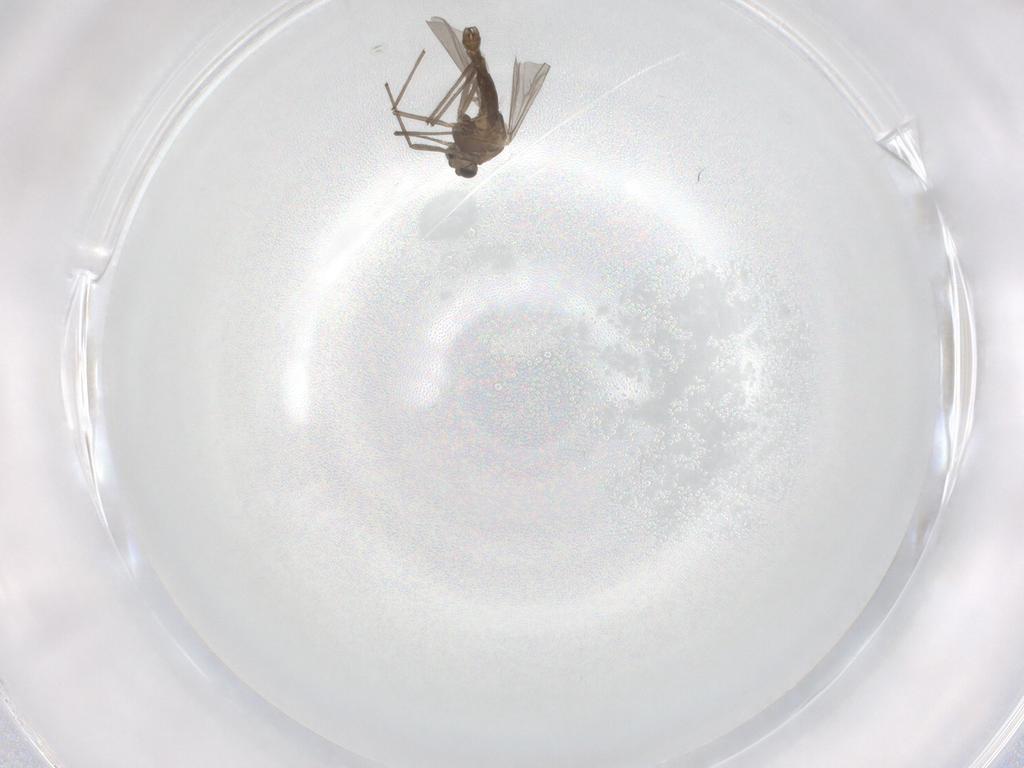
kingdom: Animalia
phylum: Arthropoda
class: Insecta
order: Diptera
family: Chironomidae
